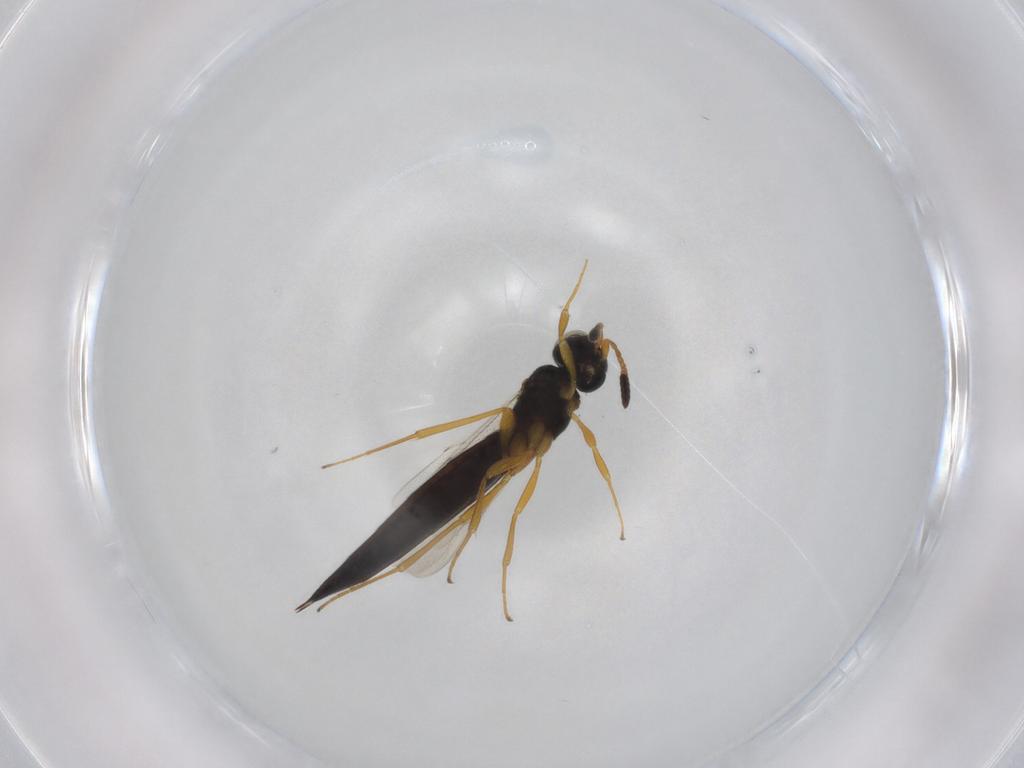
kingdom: Animalia
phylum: Arthropoda
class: Insecta
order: Hymenoptera
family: Scelionidae
